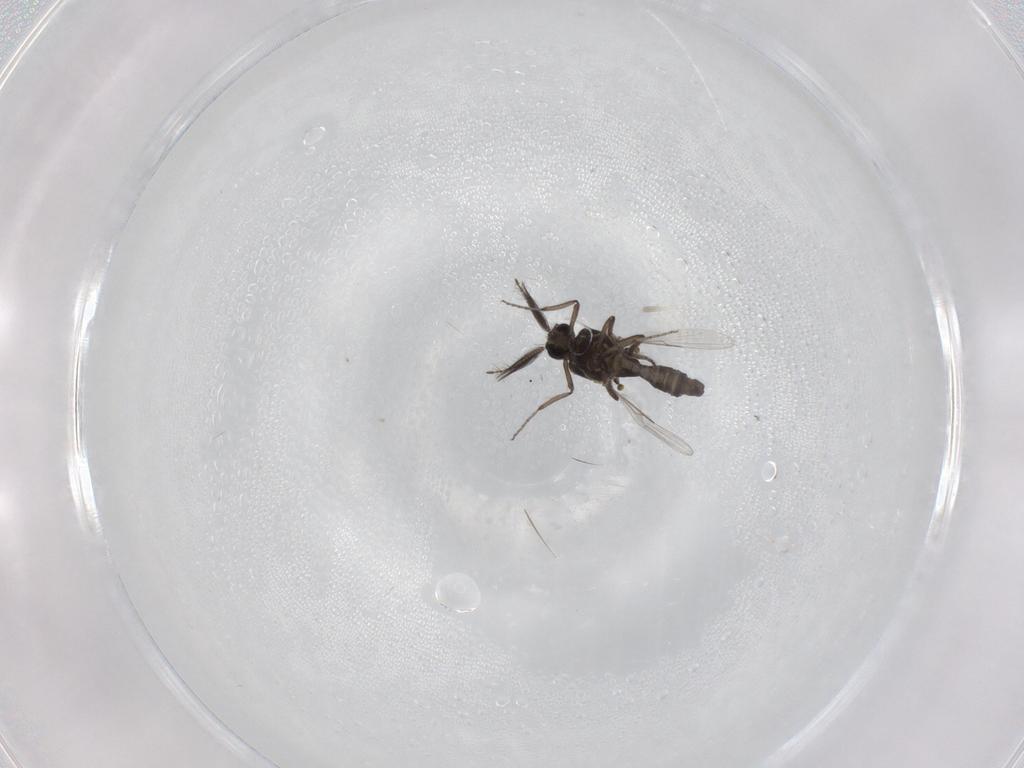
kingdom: Animalia
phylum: Arthropoda
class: Insecta
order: Diptera
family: Ceratopogonidae
